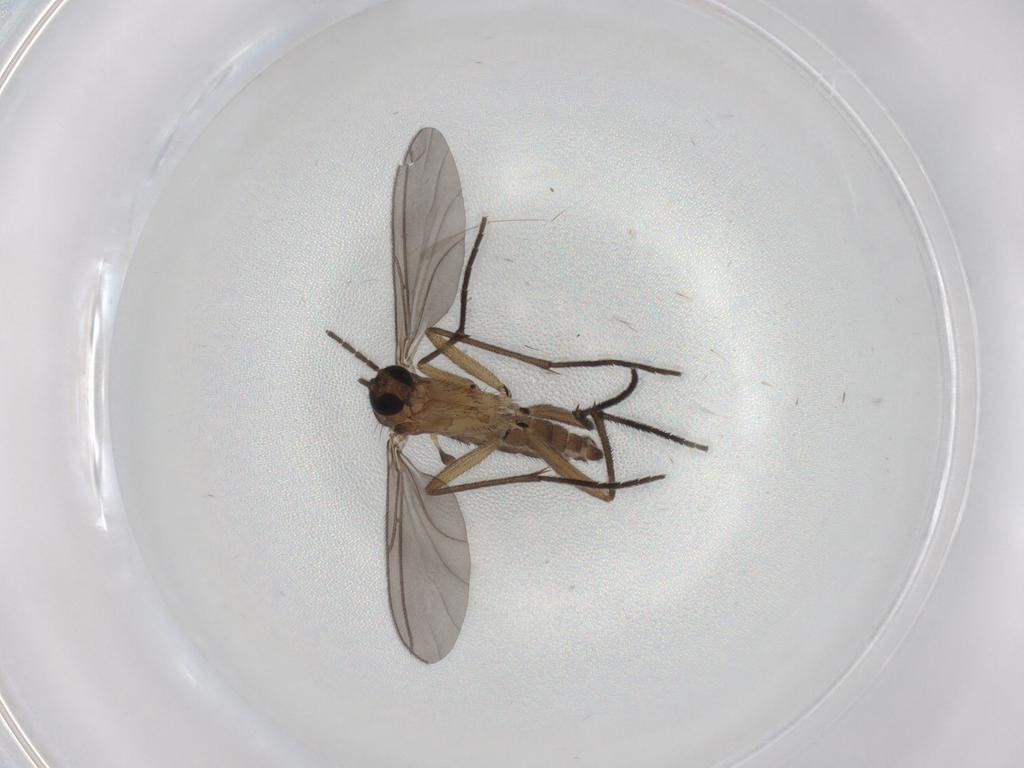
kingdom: Animalia
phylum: Arthropoda
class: Insecta
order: Diptera
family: Sciaridae
